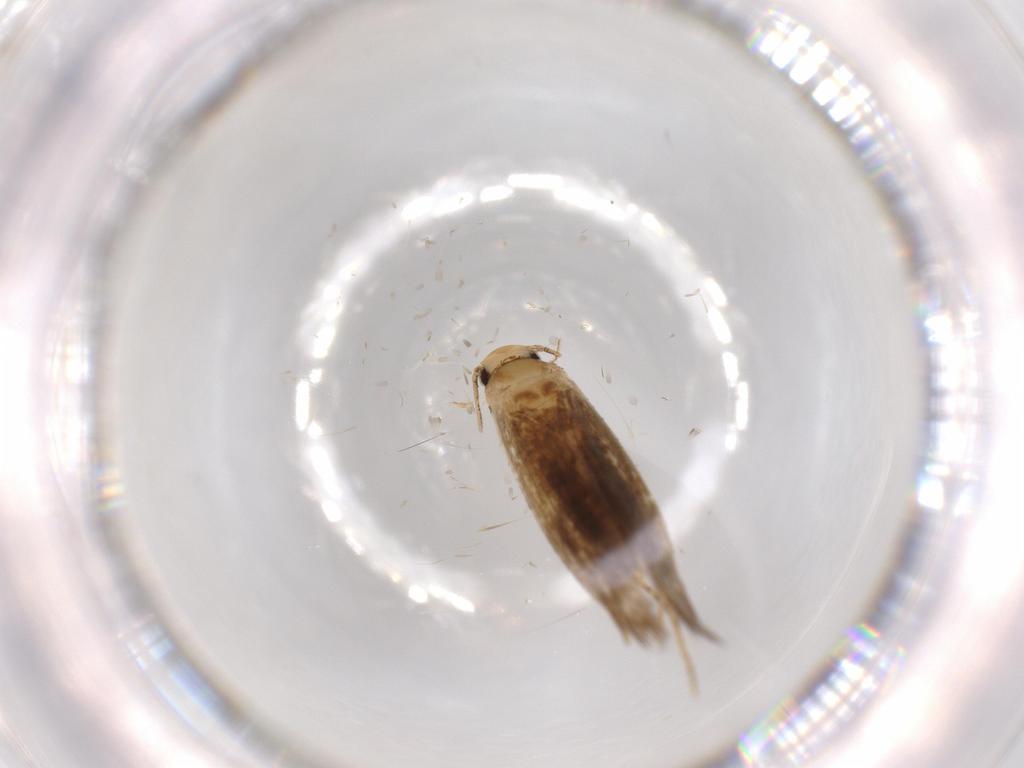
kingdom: Animalia
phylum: Arthropoda
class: Insecta
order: Lepidoptera
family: Tineidae
